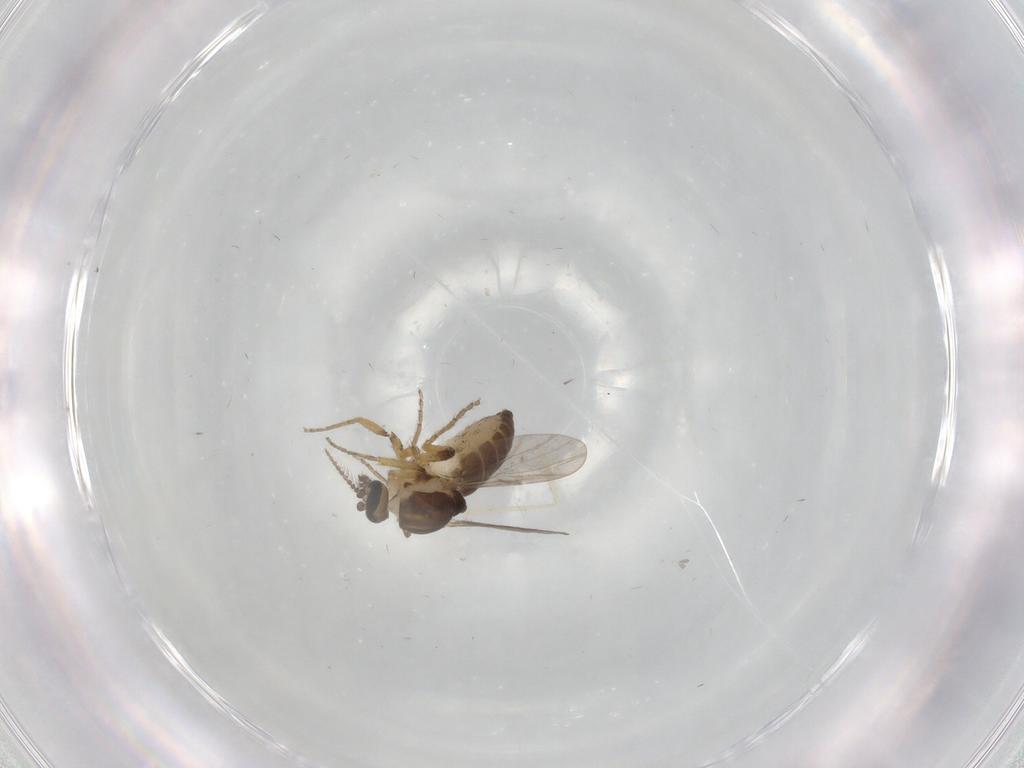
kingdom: Animalia
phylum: Arthropoda
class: Insecta
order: Diptera
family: Ceratopogonidae
